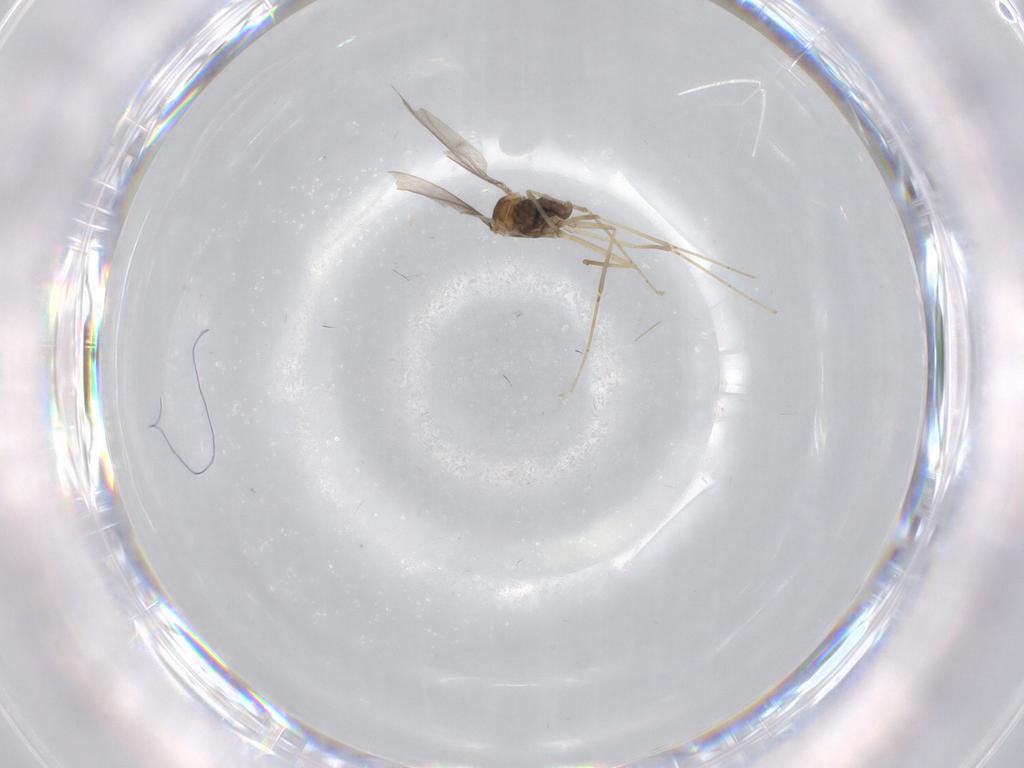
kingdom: Animalia
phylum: Arthropoda
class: Insecta
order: Diptera
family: Cecidomyiidae
